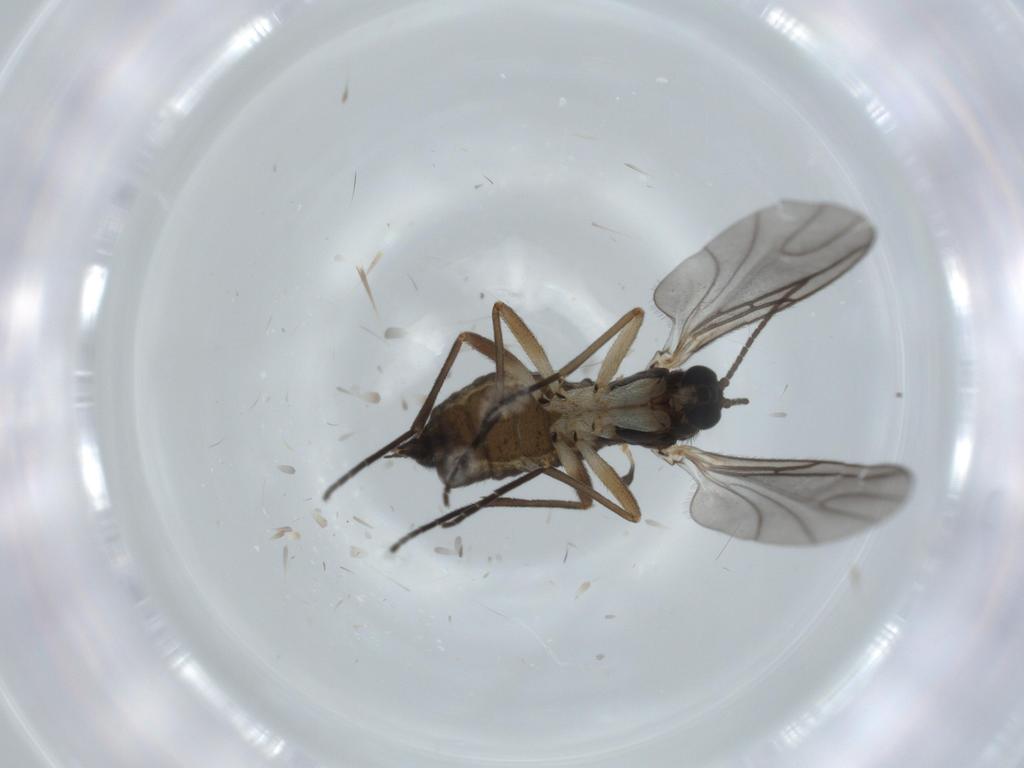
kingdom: Animalia
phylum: Arthropoda
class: Insecta
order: Diptera
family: Sciaridae
